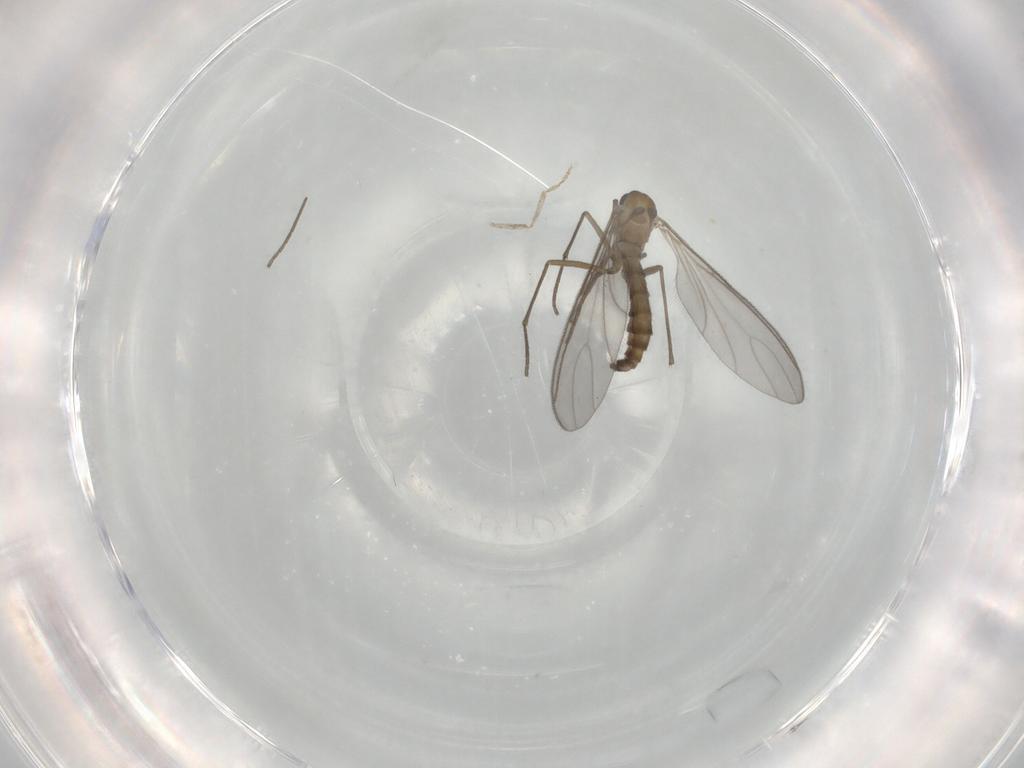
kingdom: Animalia
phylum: Arthropoda
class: Insecta
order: Diptera
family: Sciaridae
